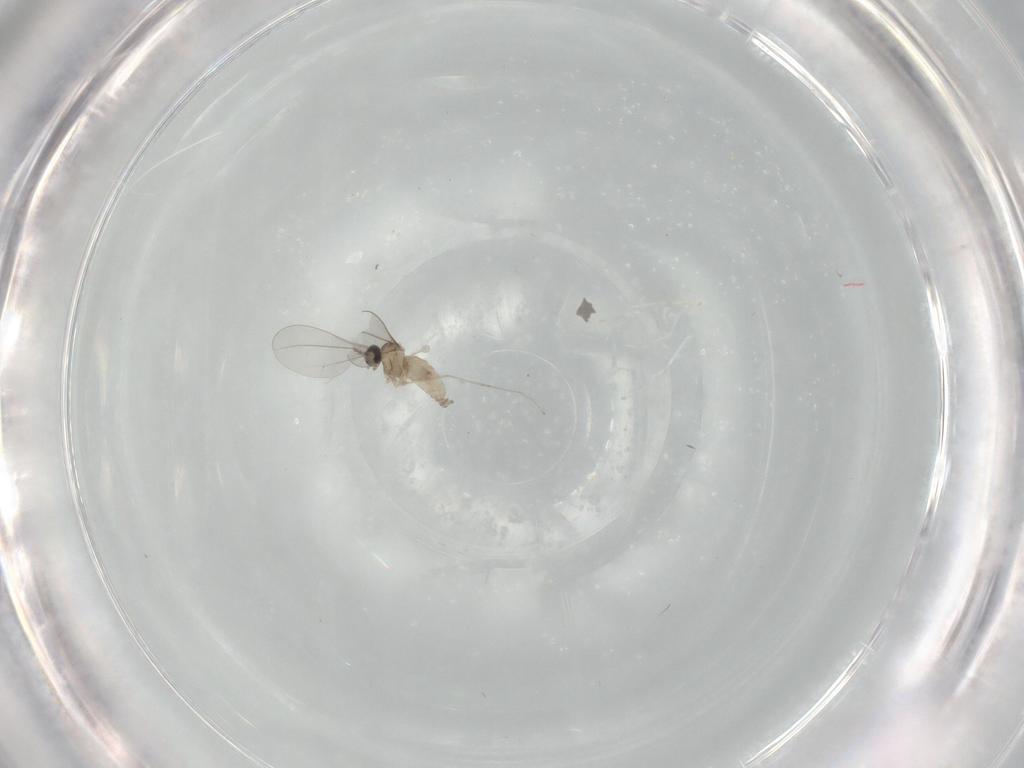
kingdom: Animalia
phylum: Arthropoda
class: Insecta
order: Diptera
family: Cecidomyiidae
